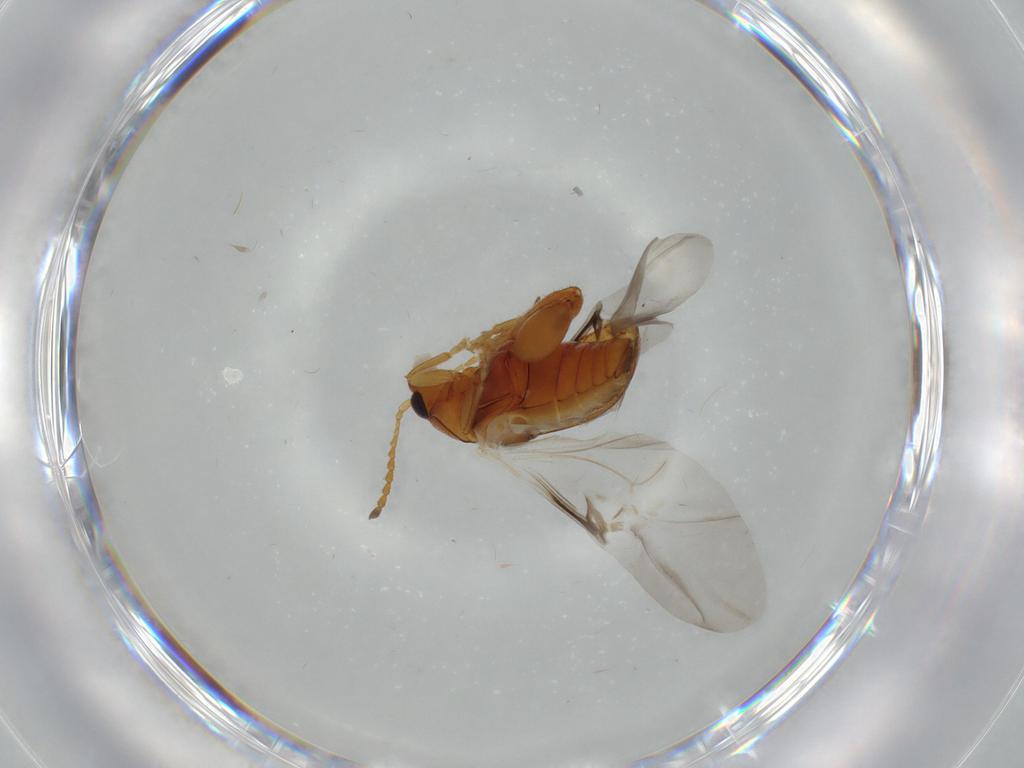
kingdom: Animalia
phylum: Arthropoda
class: Insecta
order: Coleoptera
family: Chrysomelidae
